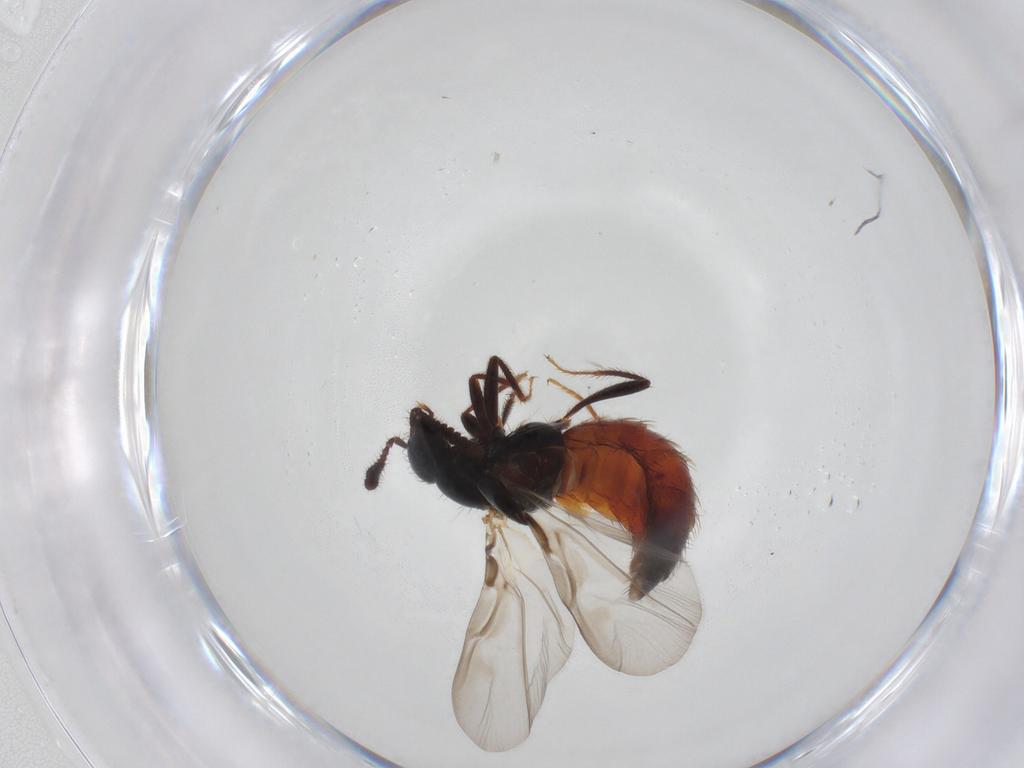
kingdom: Animalia
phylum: Arthropoda
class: Insecta
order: Coleoptera
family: Staphylinidae
